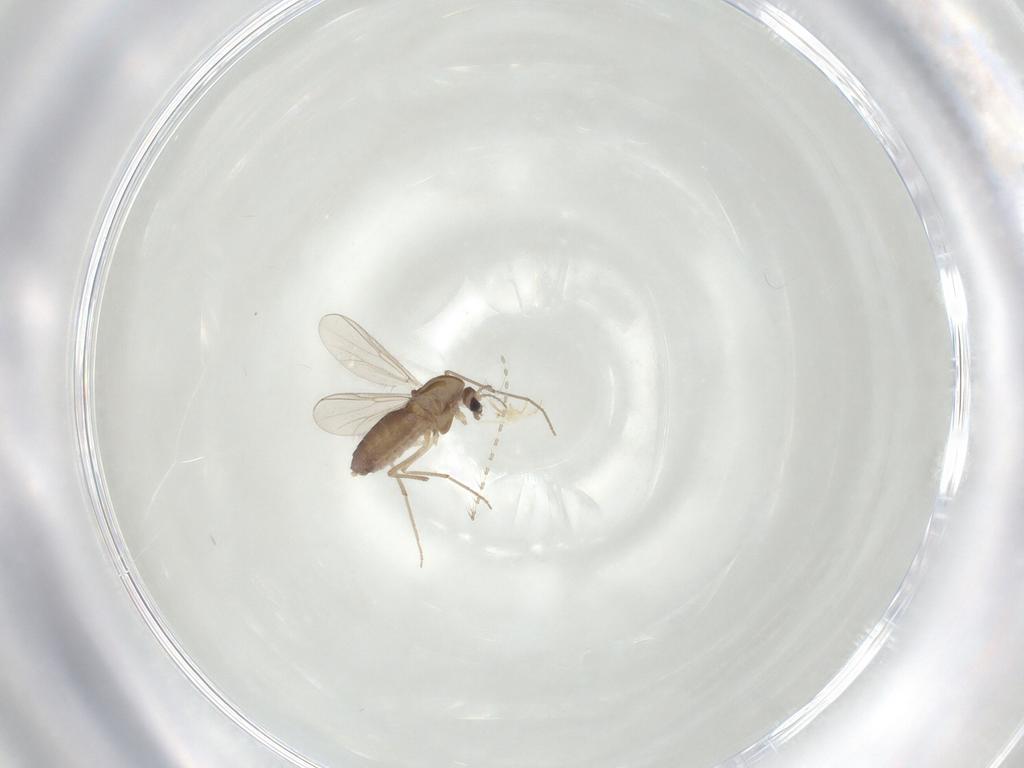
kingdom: Animalia
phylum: Arthropoda
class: Insecta
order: Diptera
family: Cecidomyiidae
